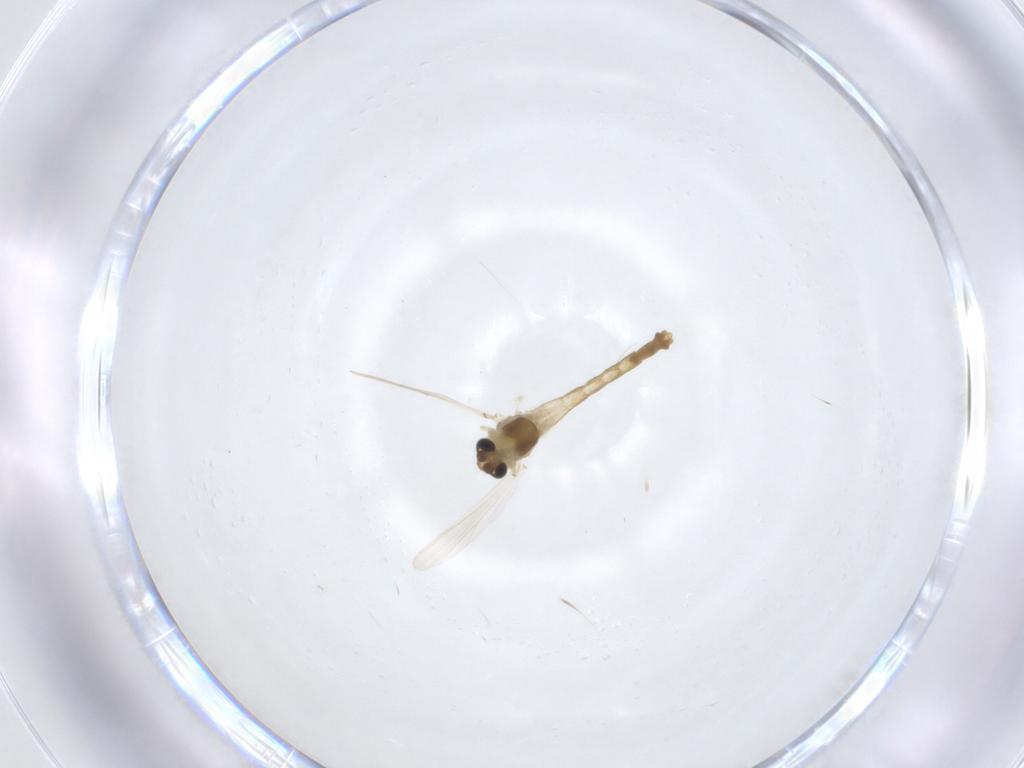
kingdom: Animalia
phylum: Arthropoda
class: Insecta
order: Diptera
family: Chironomidae
